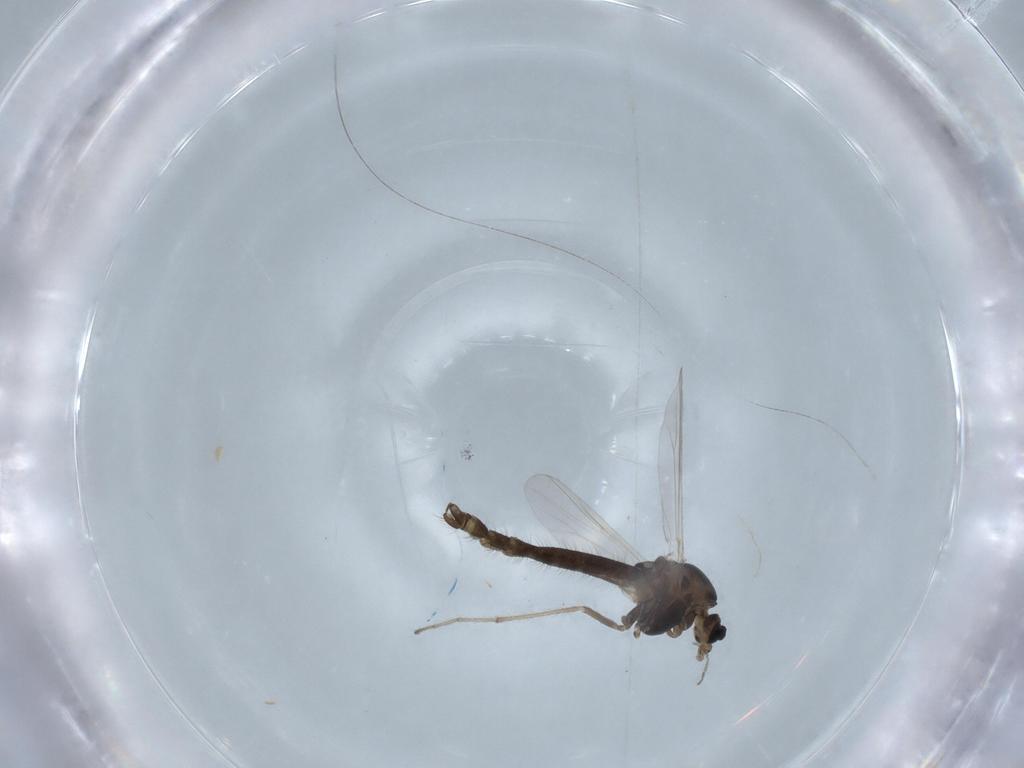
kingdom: Animalia
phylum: Arthropoda
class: Insecta
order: Diptera
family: Chironomidae
